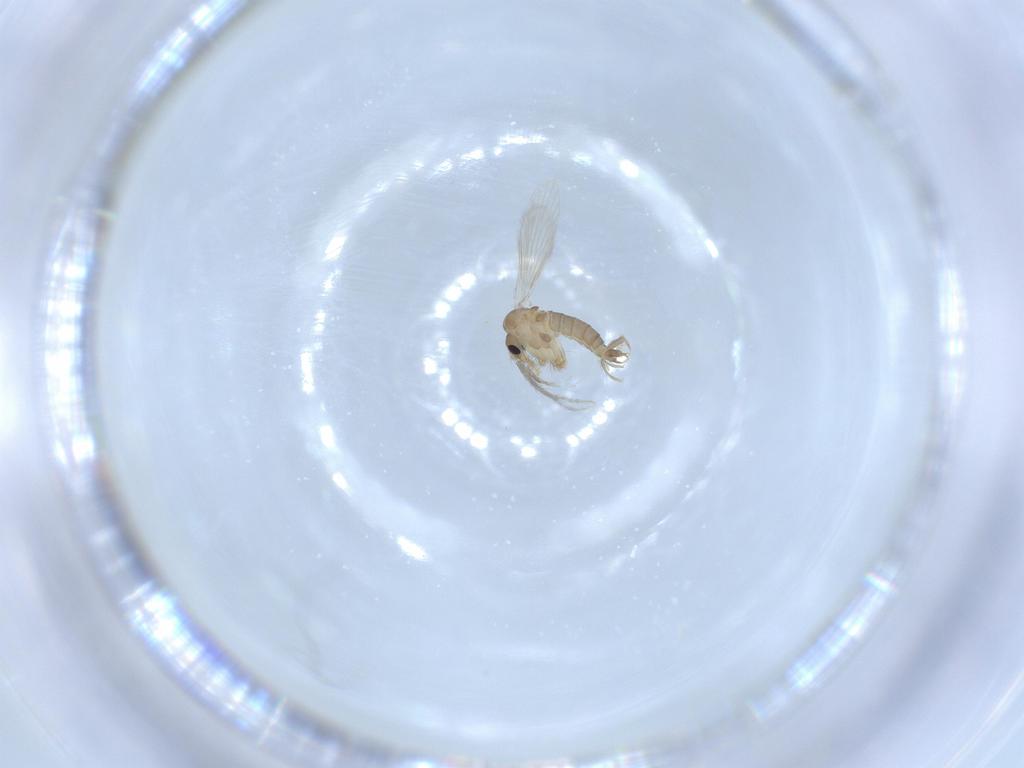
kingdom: Animalia
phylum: Arthropoda
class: Insecta
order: Diptera
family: Psychodidae
